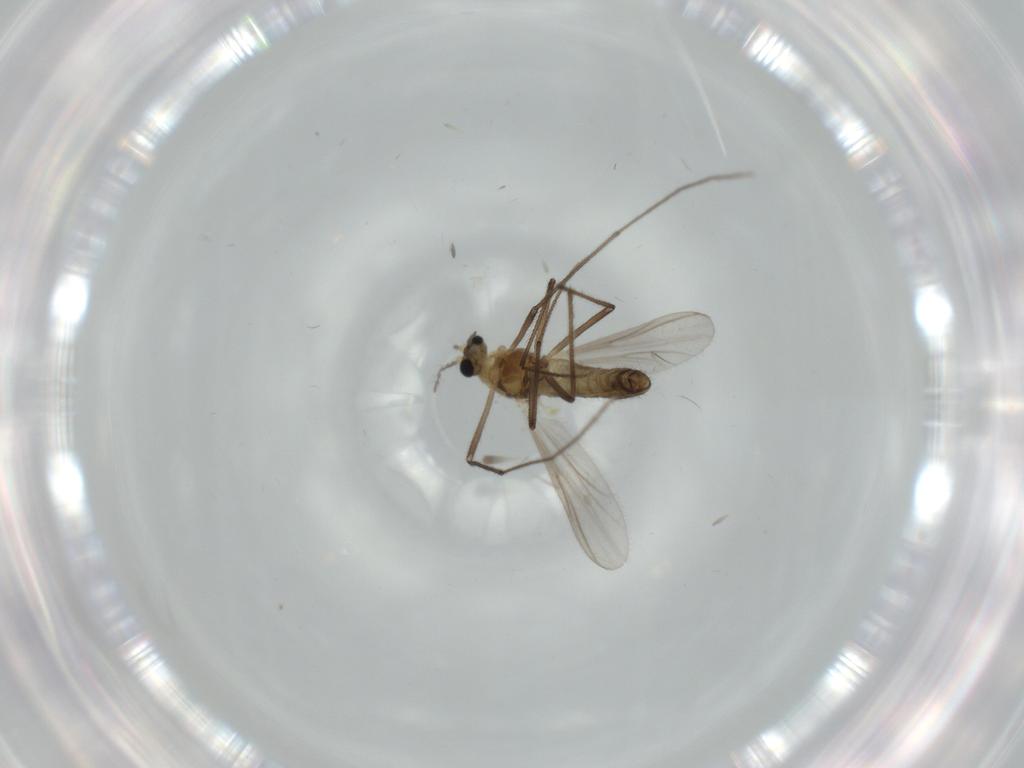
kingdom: Animalia
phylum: Arthropoda
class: Insecta
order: Diptera
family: Chironomidae
